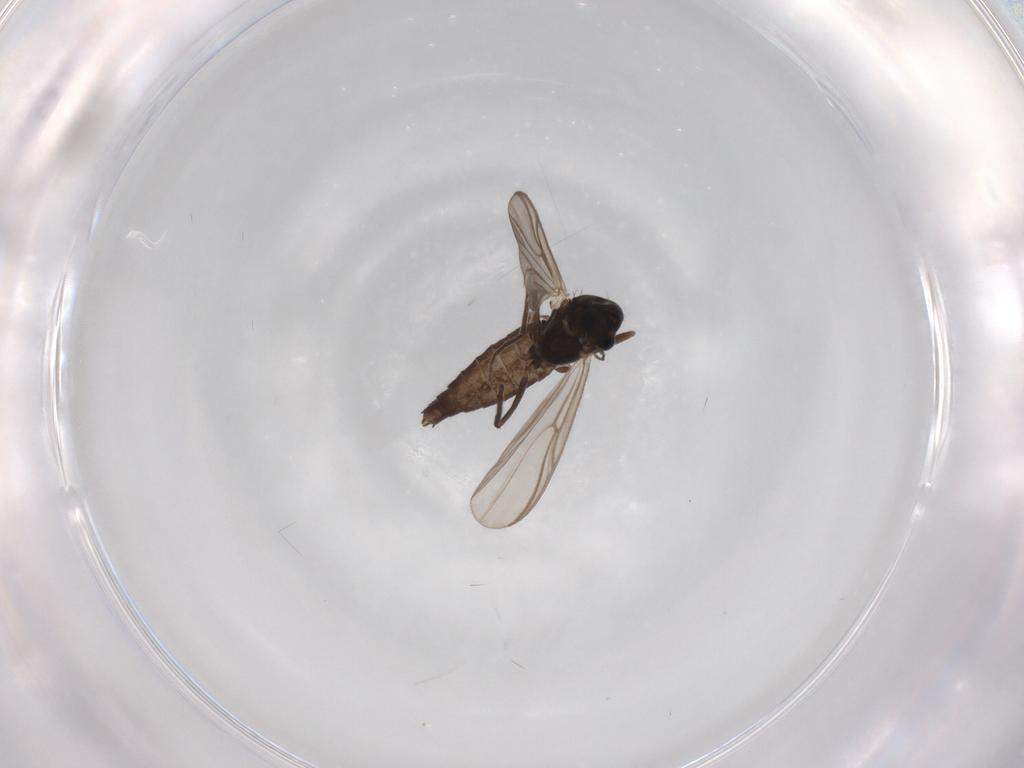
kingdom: Animalia
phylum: Arthropoda
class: Insecta
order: Diptera
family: Chironomidae
